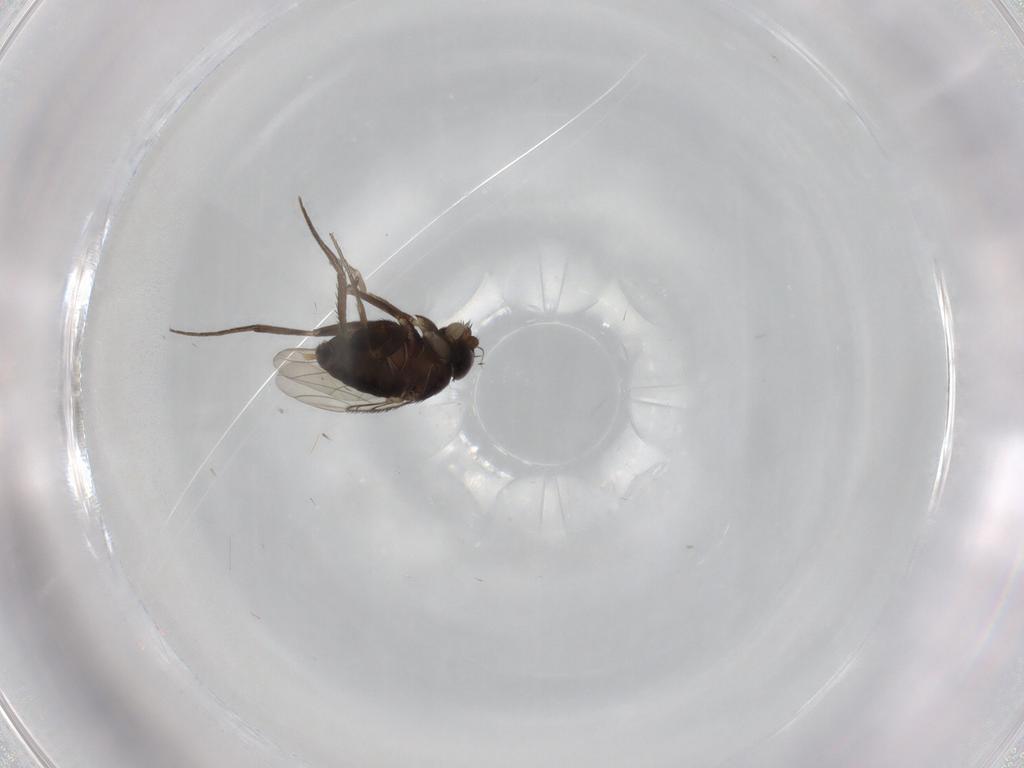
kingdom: Animalia
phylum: Arthropoda
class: Insecta
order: Diptera
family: Phoridae
